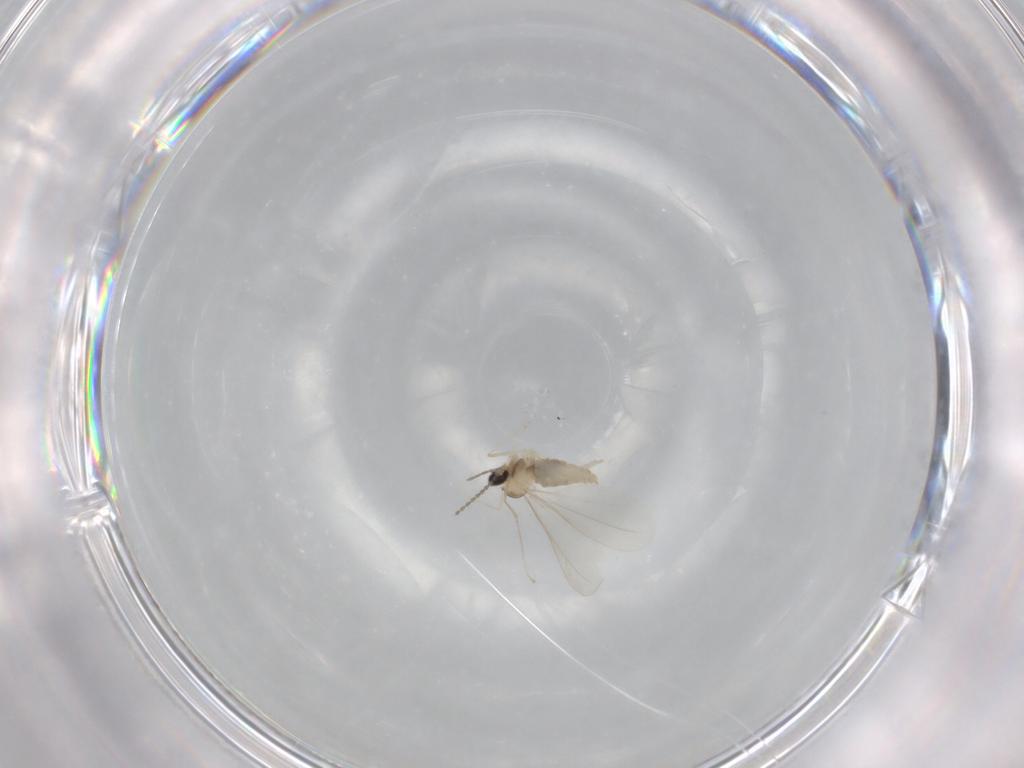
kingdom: Animalia
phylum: Arthropoda
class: Insecta
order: Diptera
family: Cecidomyiidae
